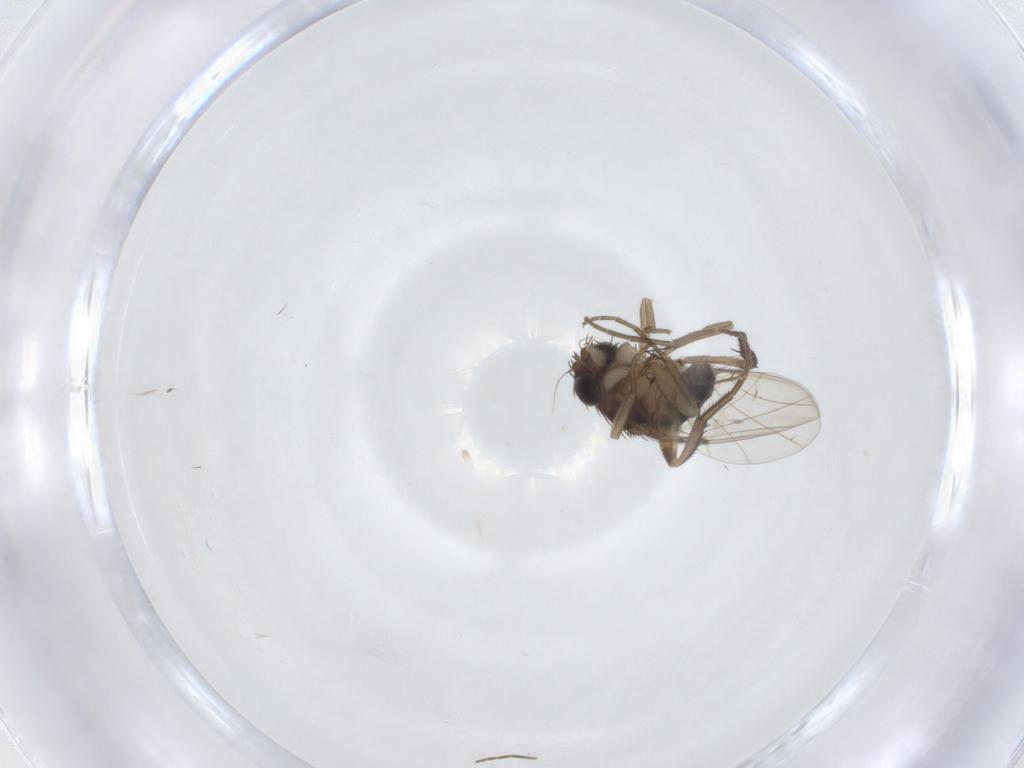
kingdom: Animalia
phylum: Arthropoda
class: Insecta
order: Diptera
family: Phoridae
